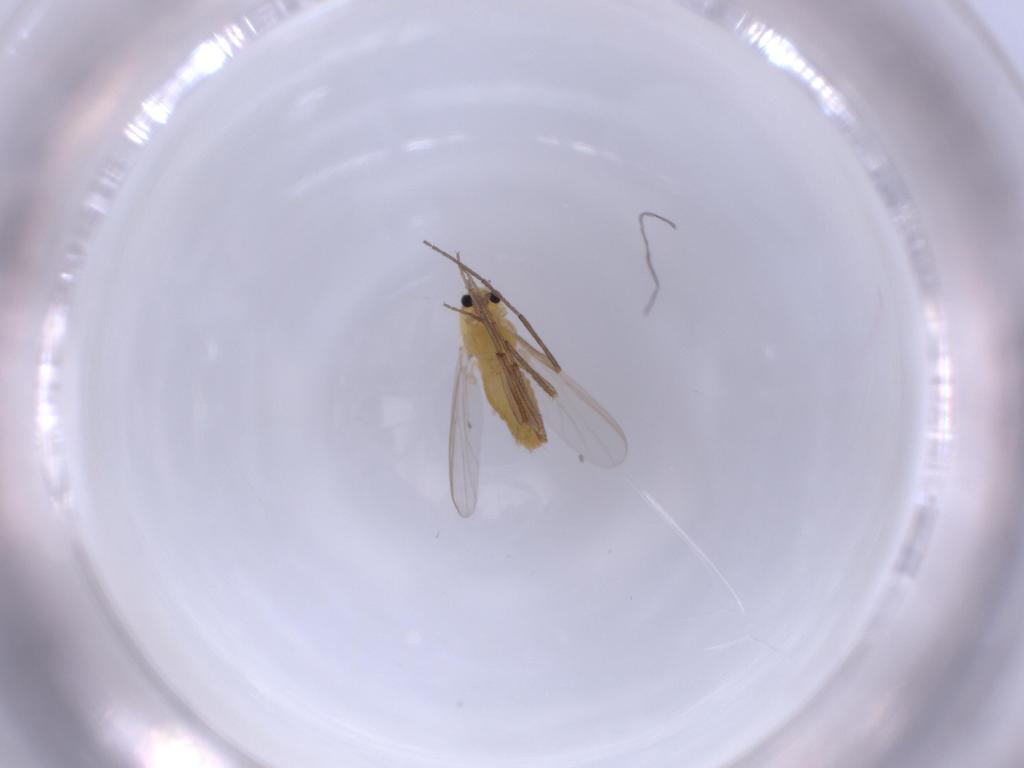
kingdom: Animalia
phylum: Arthropoda
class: Insecta
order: Diptera
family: Chironomidae
